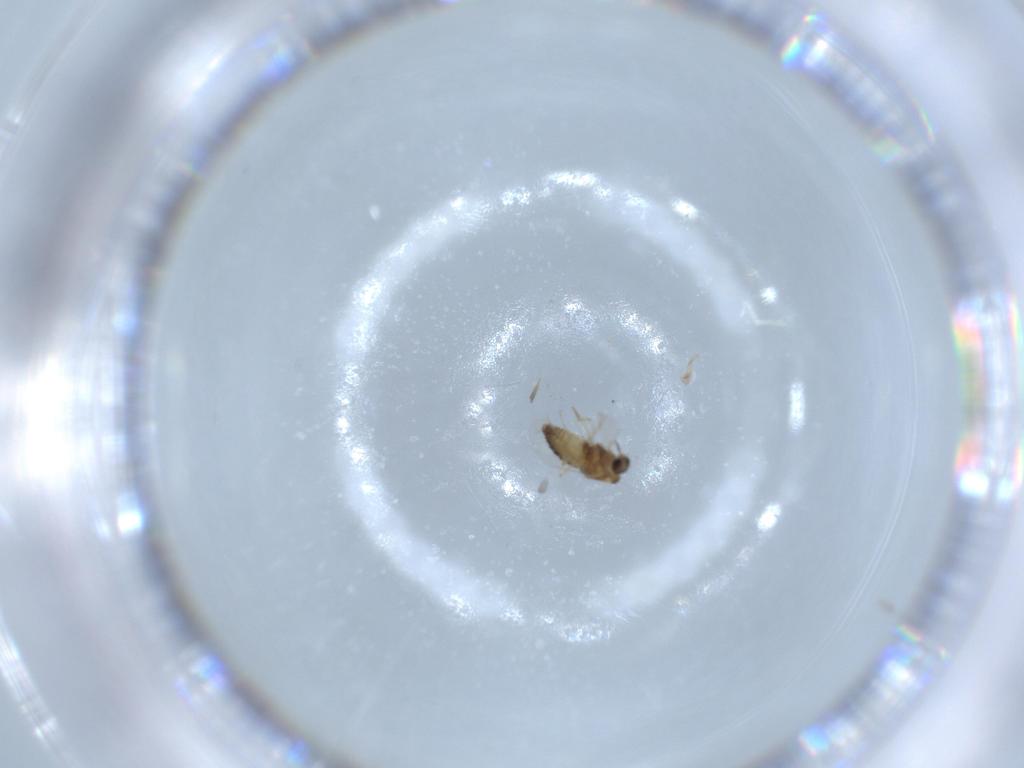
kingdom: Animalia
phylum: Arthropoda
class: Insecta
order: Diptera
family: Chironomidae
